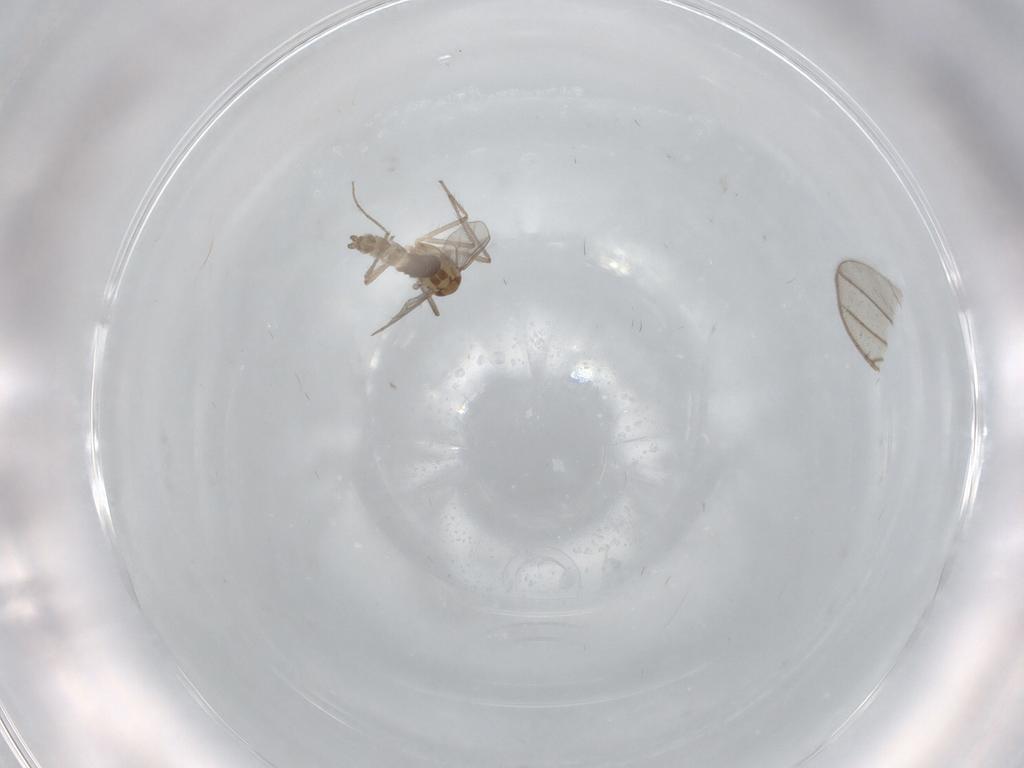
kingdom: Animalia
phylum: Arthropoda
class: Insecta
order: Diptera
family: Chironomidae
